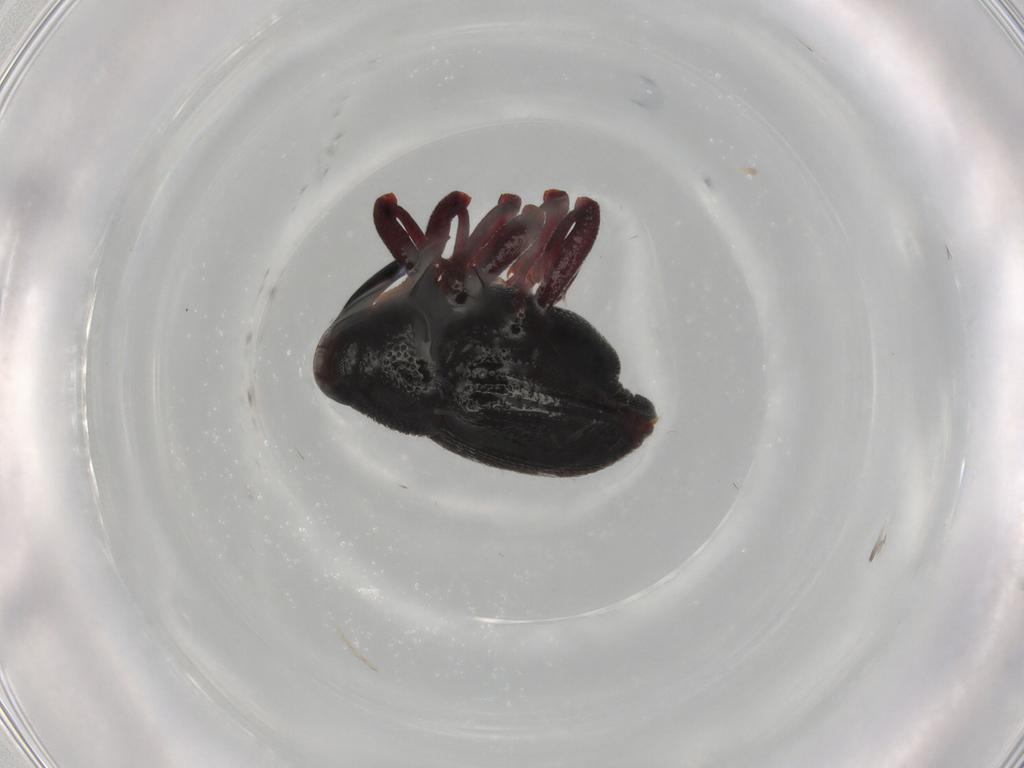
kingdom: Animalia
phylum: Arthropoda
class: Insecta
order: Coleoptera
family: Curculionidae
